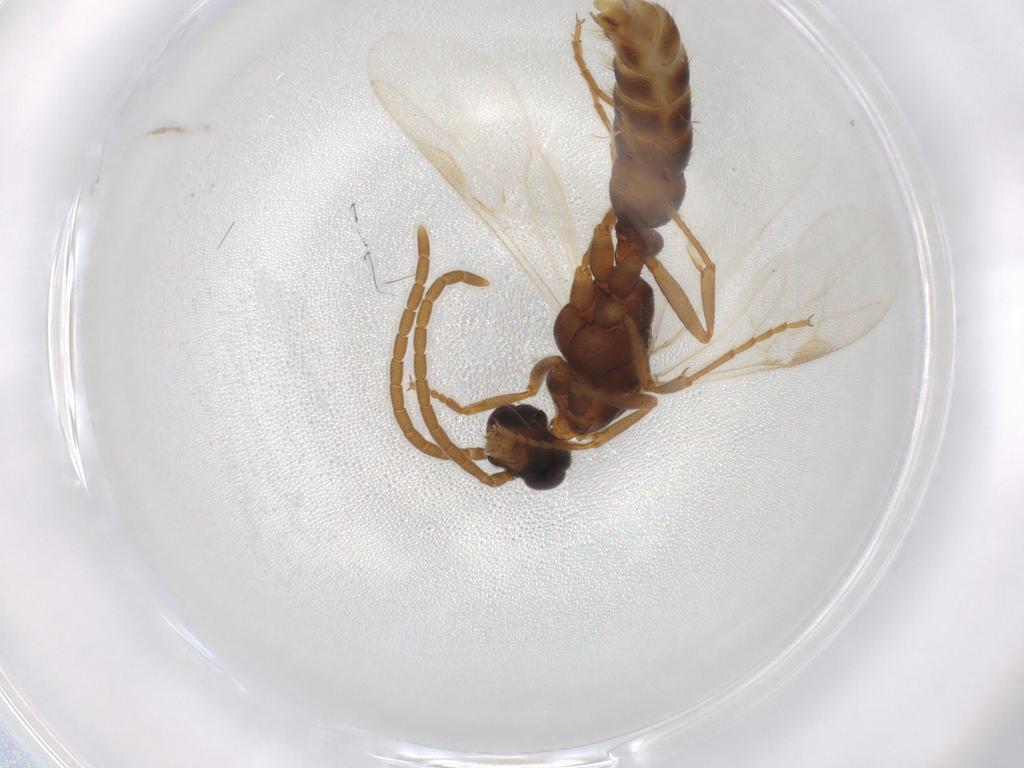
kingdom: Animalia
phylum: Arthropoda
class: Insecta
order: Hymenoptera
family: Formicidae
